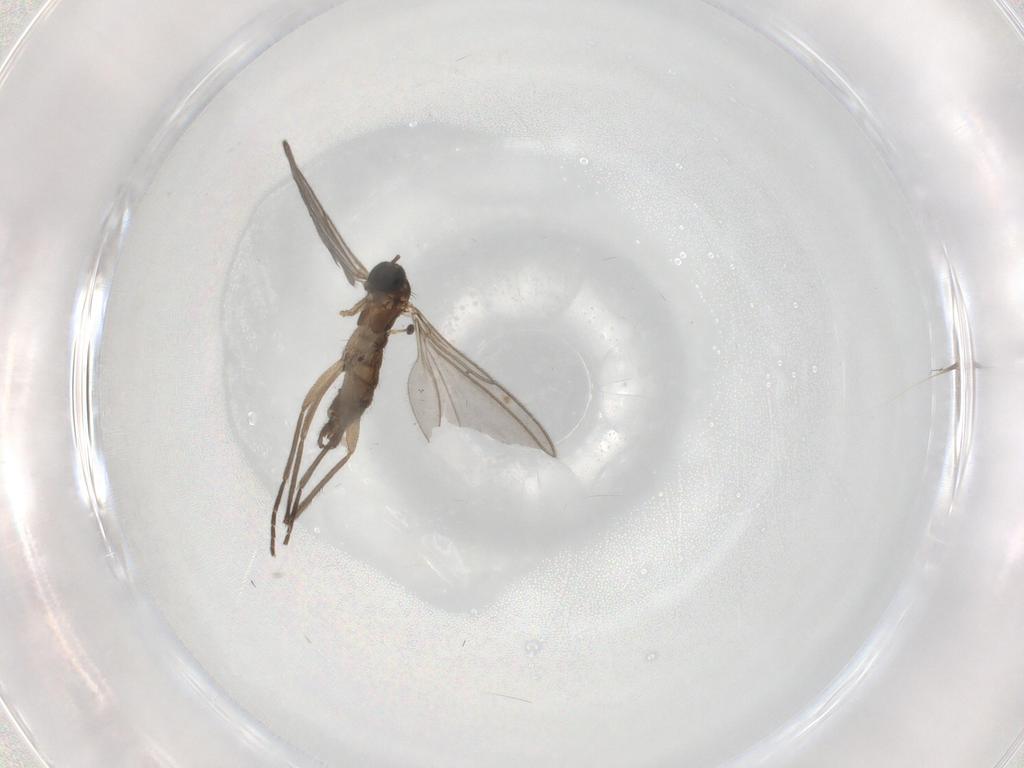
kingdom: Animalia
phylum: Arthropoda
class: Insecta
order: Diptera
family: Sciaridae
